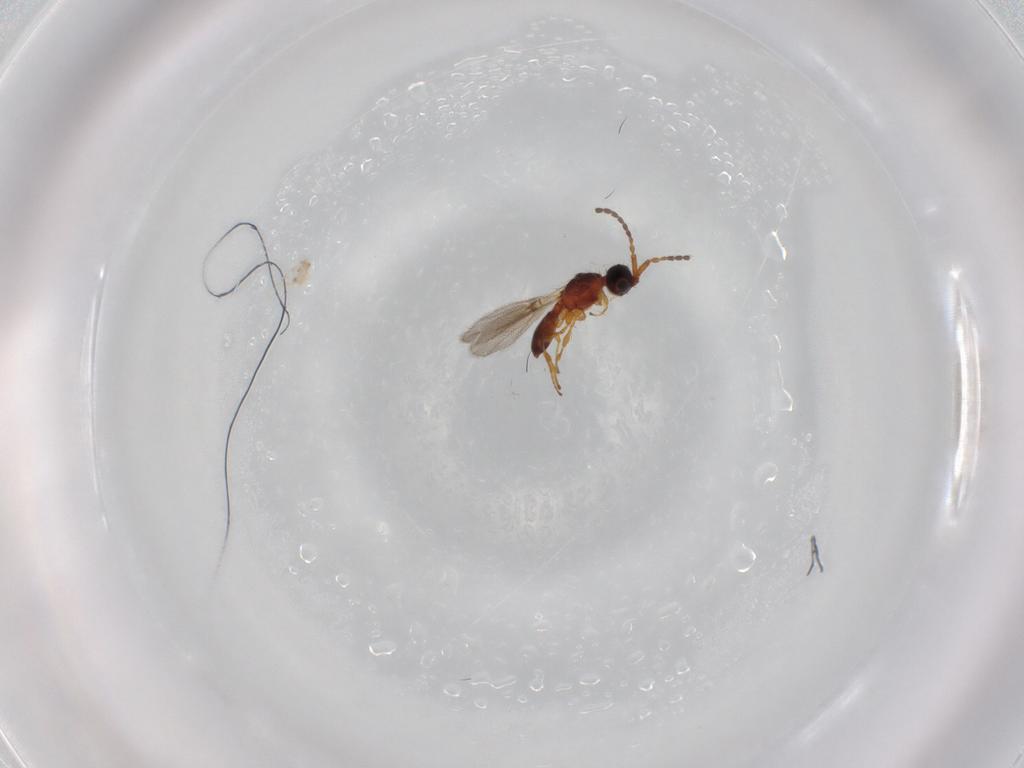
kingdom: Animalia
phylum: Arthropoda
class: Insecta
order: Hymenoptera
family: Diapriidae
